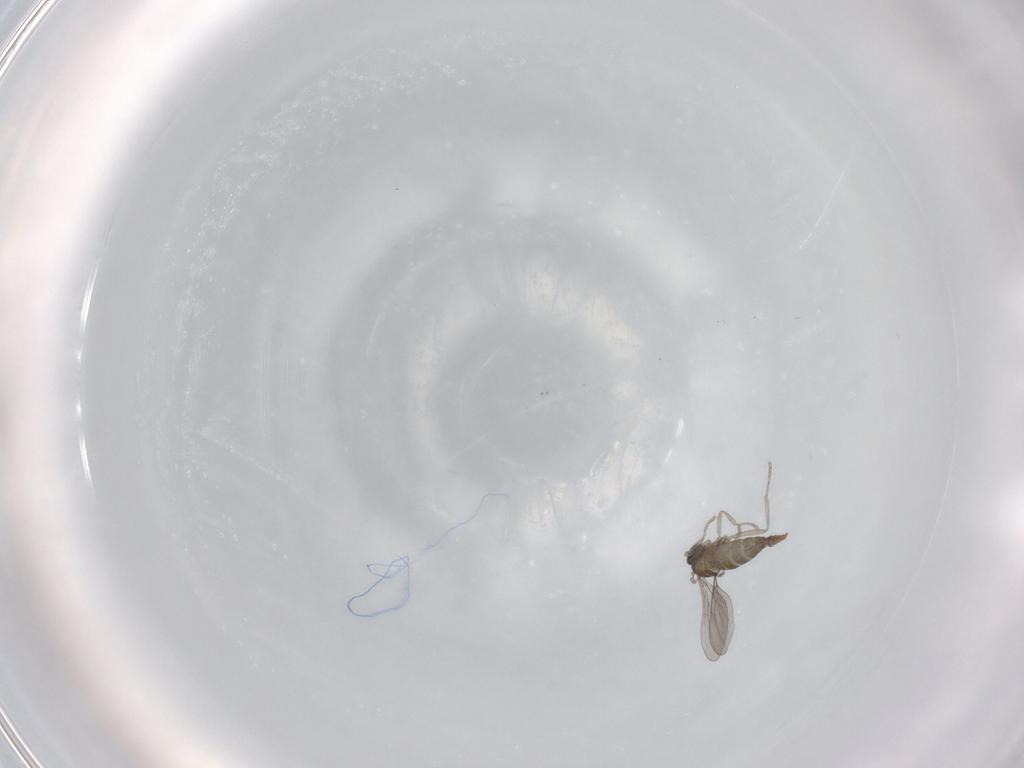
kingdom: Animalia
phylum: Arthropoda
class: Insecta
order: Diptera
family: Cecidomyiidae
